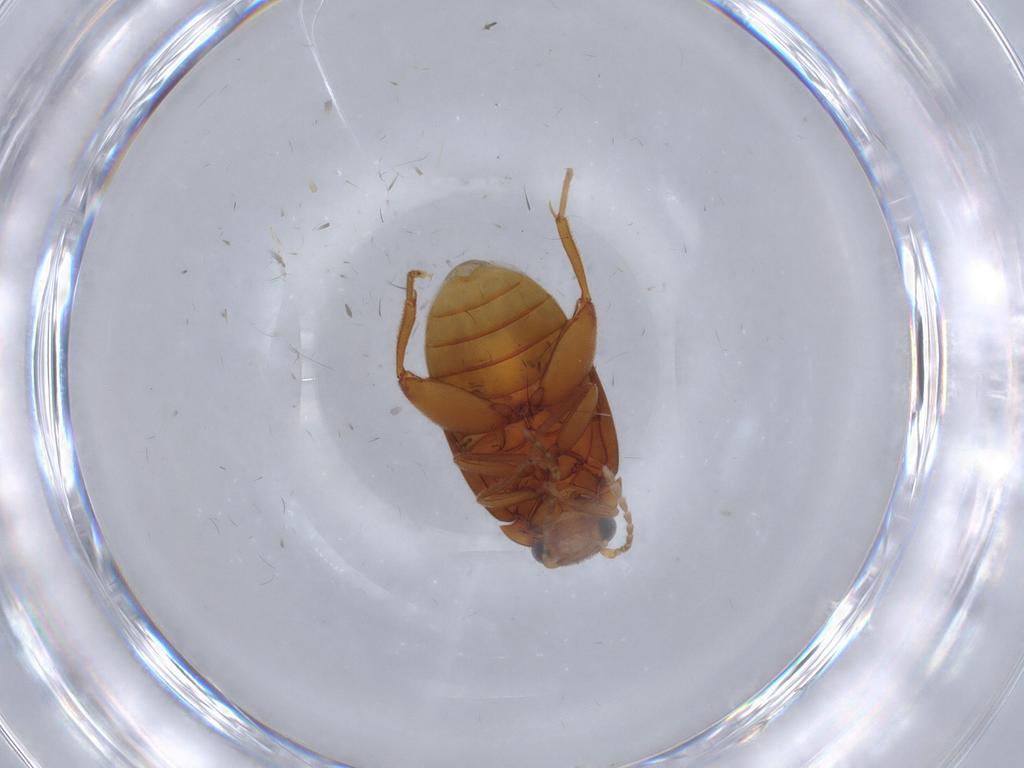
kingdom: Animalia
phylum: Arthropoda
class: Insecta
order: Coleoptera
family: Scirtidae
